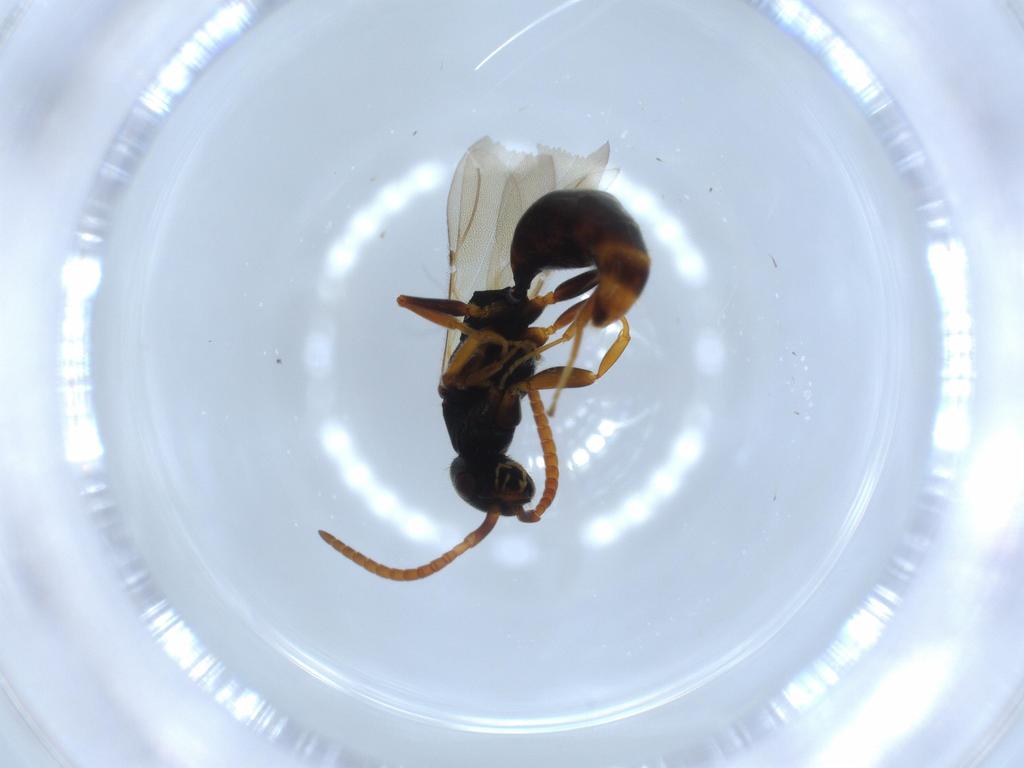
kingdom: Animalia
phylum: Arthropoda
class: Insecta
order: Hymenoptera
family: Bethylidae
